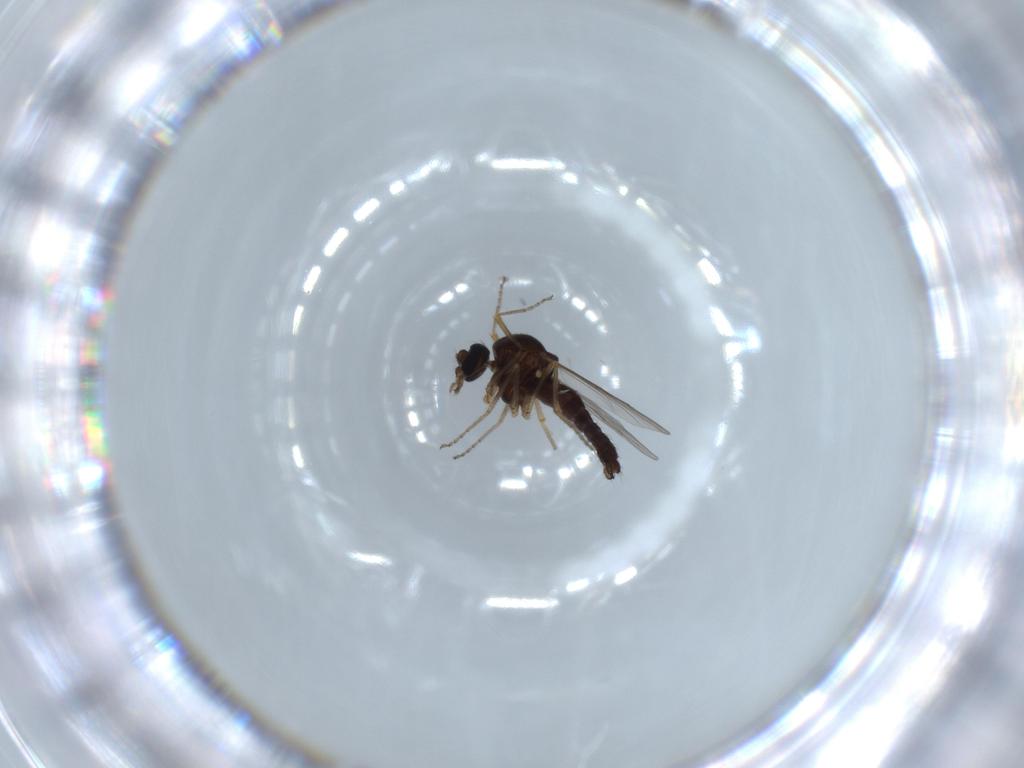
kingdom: Animalia
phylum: Arthropoda
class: Insecta
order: Diptera
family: Ceratopogonidae
